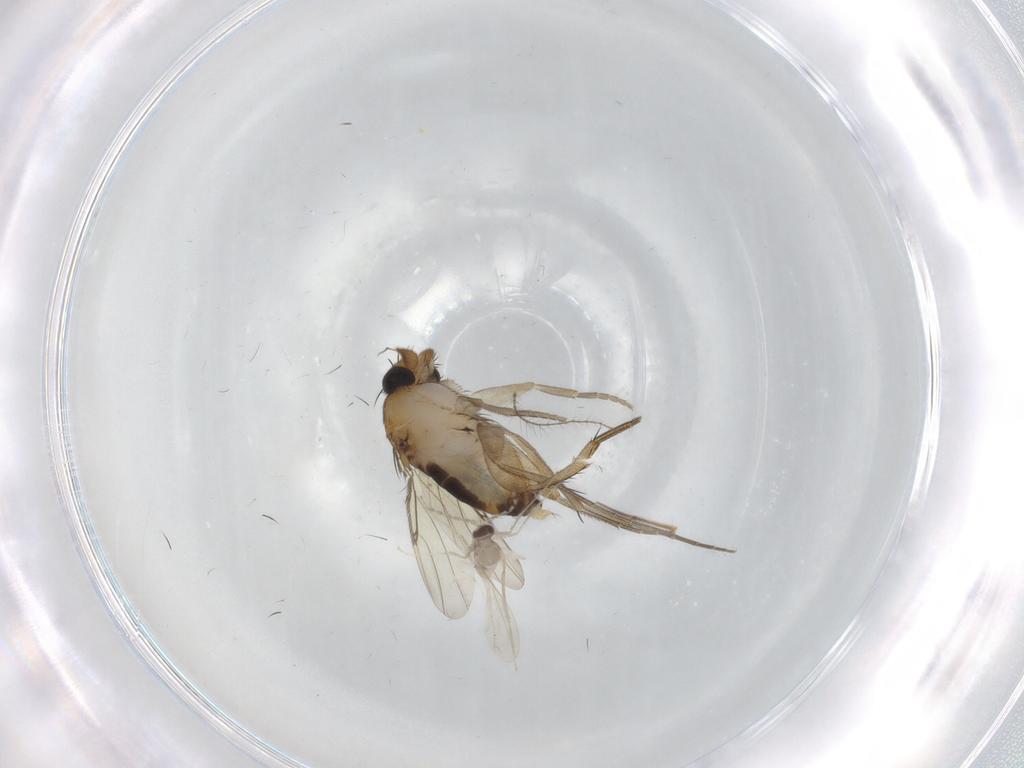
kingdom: Animalia
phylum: Arthropoda
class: Insecta
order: Diptera
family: Phoridae
